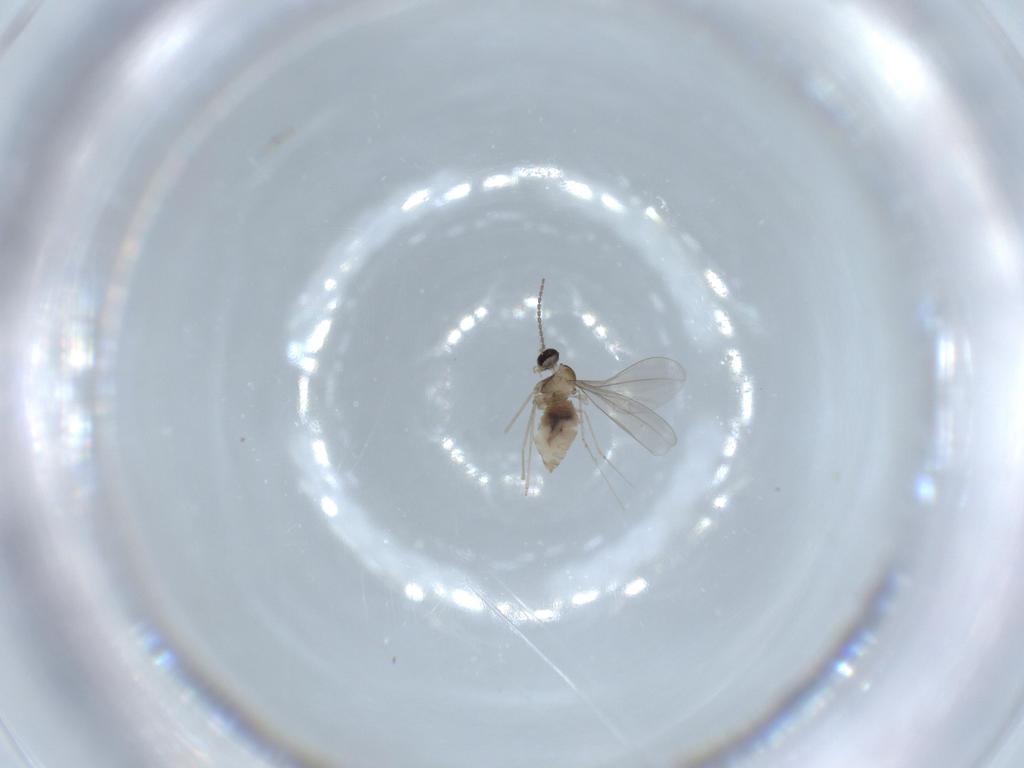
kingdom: Animalia
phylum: Arthropoda
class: Insecta
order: Diptera
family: Cecidomyiidae
